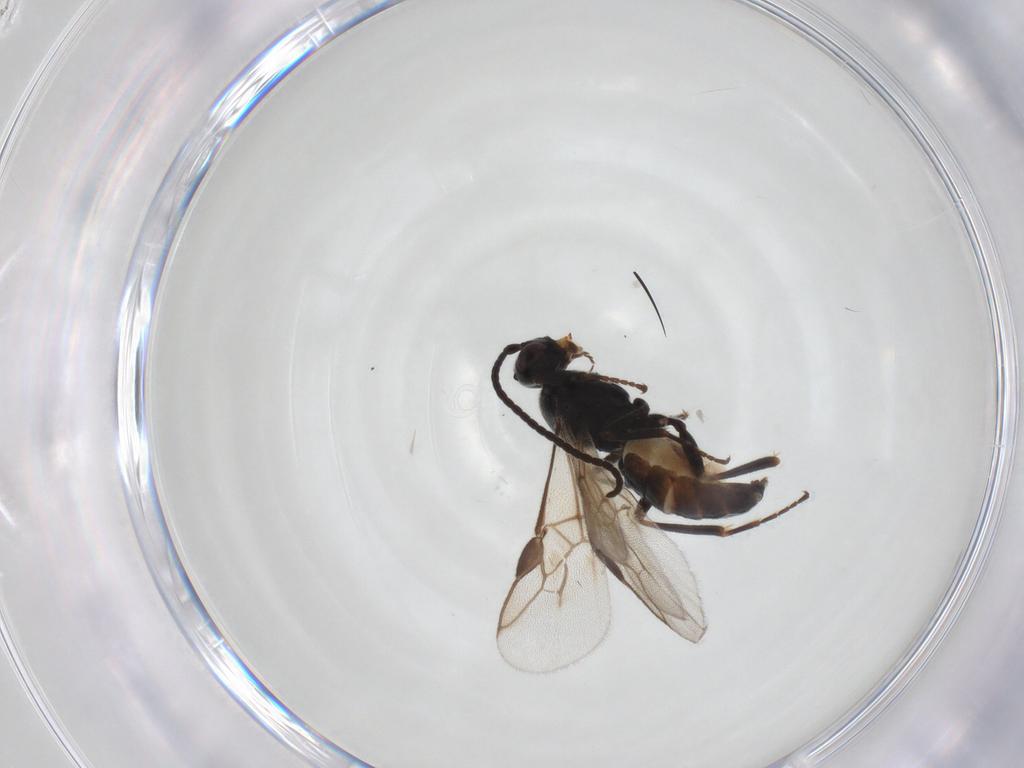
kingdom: Animalia
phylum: Arthropoda
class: Insecta
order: Hymenoptera
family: Braconidae
